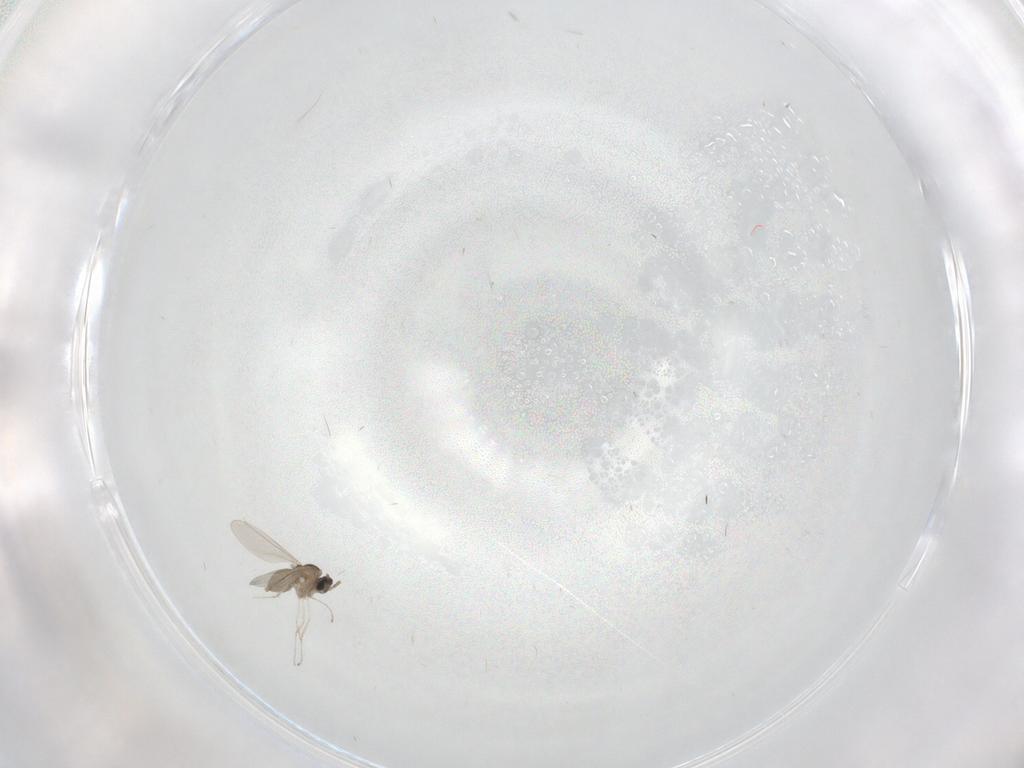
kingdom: Animalia
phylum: Arthropoda
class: Insecta
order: Diptera
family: Cecidomyiidae
